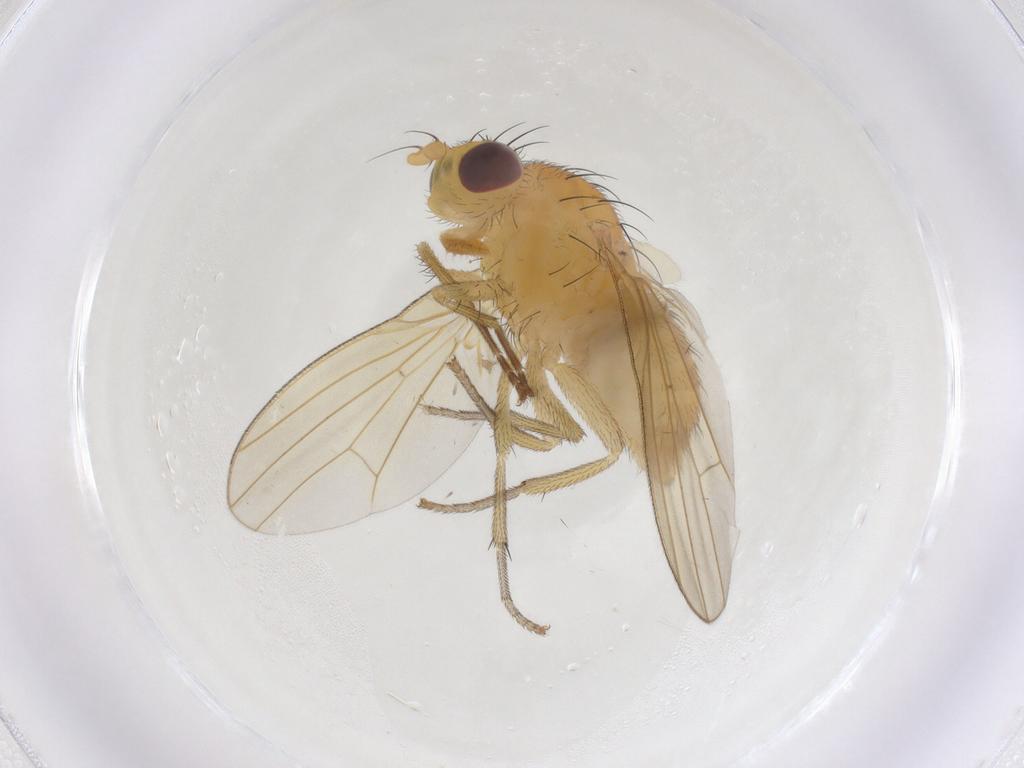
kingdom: Animalia
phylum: Arthropoda
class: Insecta
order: Diptera
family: Lauxaniidae
